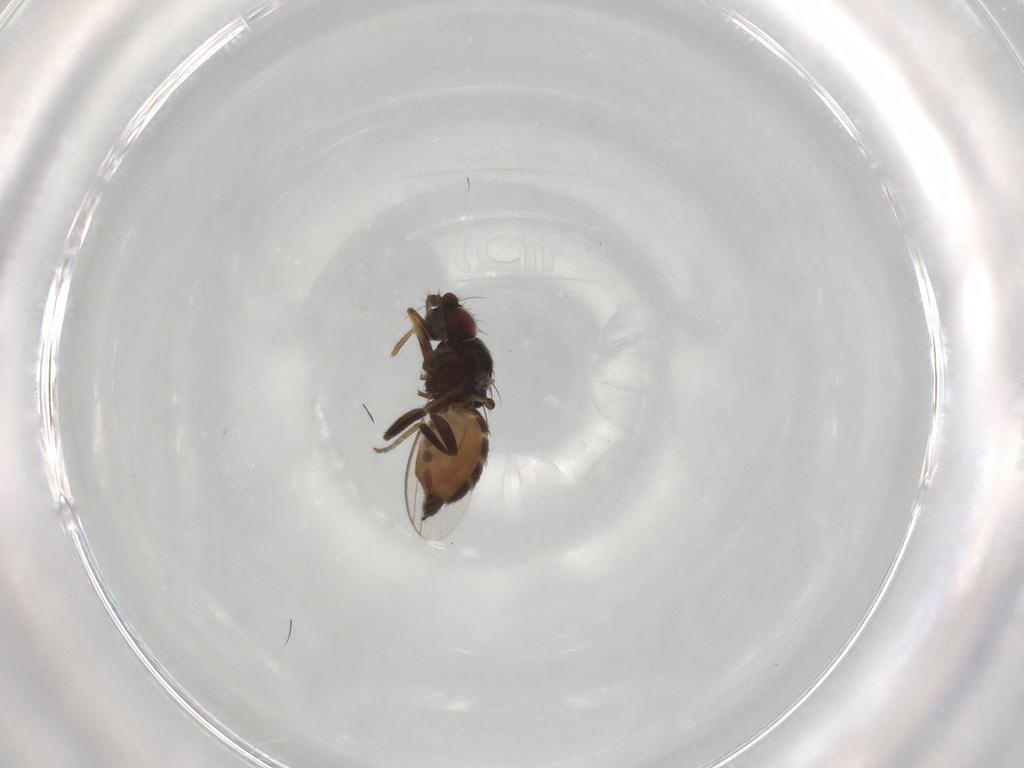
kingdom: Animalia
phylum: Arthropoda
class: Insecta
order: Diptera
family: Milichiidae
